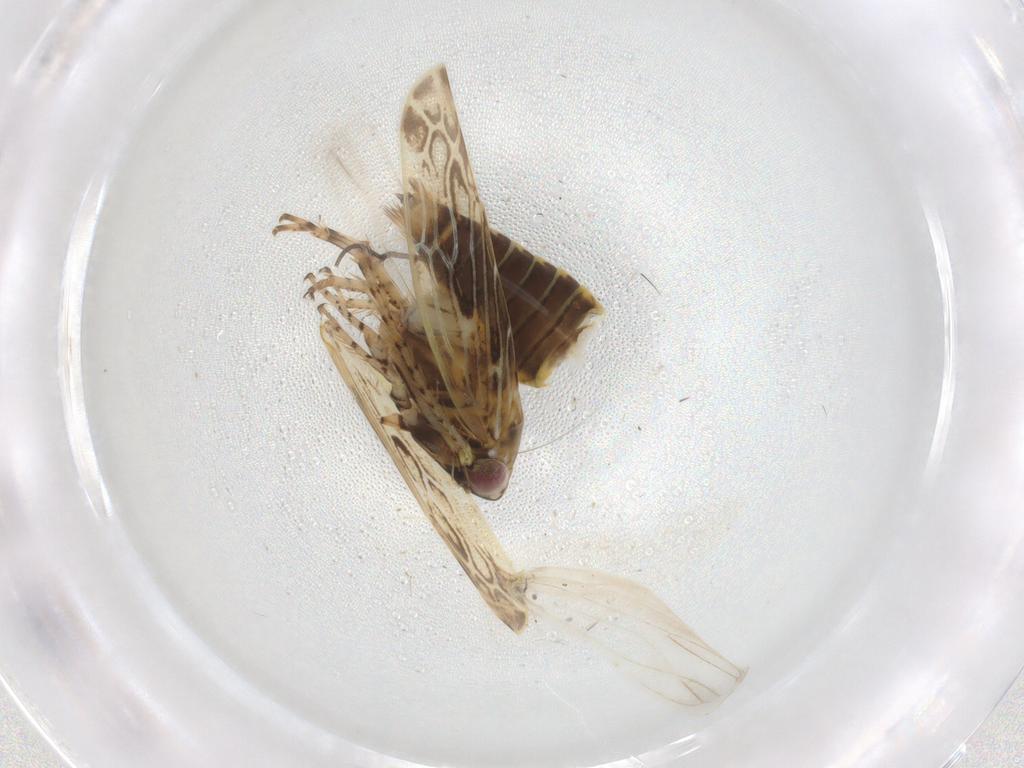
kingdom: Animalia
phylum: Arthropoda
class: Insecta
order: Hemiptera
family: Cicadellidae
